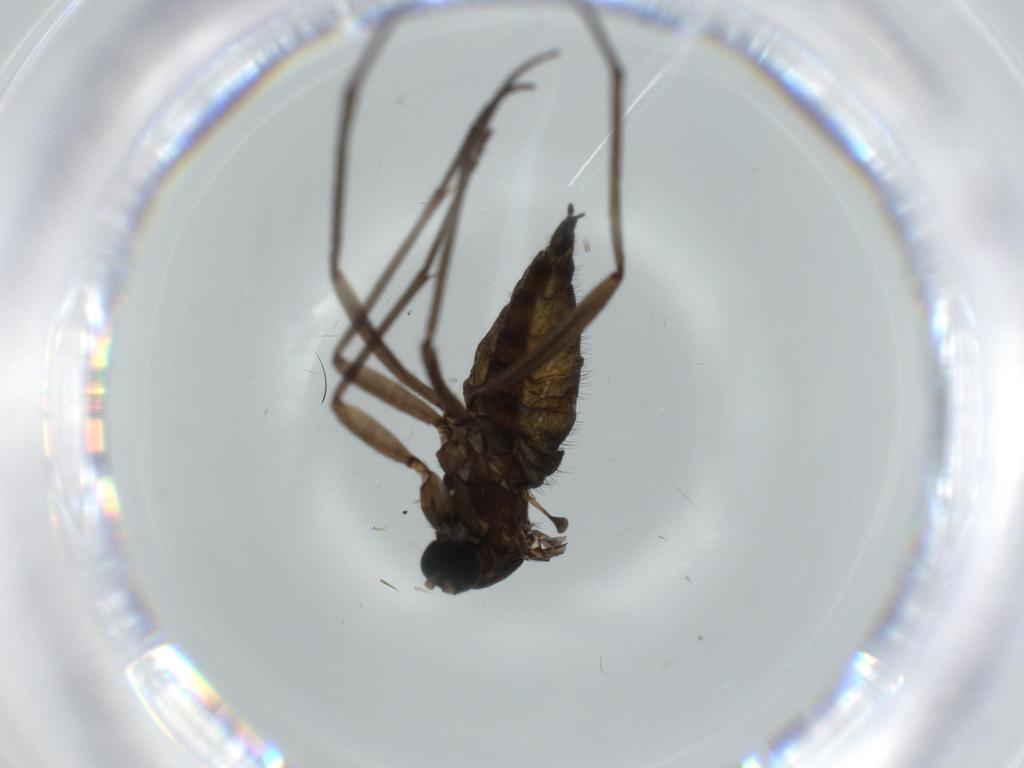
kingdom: Animalia
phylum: Arthropoda
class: Insecta
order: Diptera
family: Sciaridae
